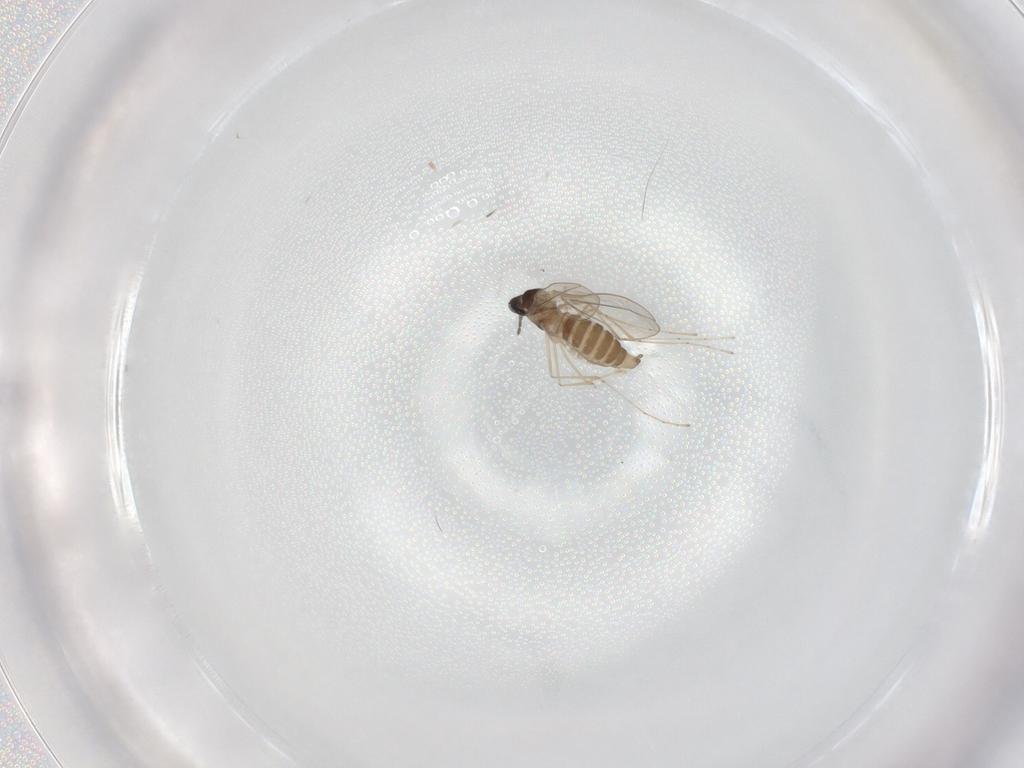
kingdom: Animalia
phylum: Arthropoda
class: Insecta
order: Diptera
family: Cecidomyiidae
